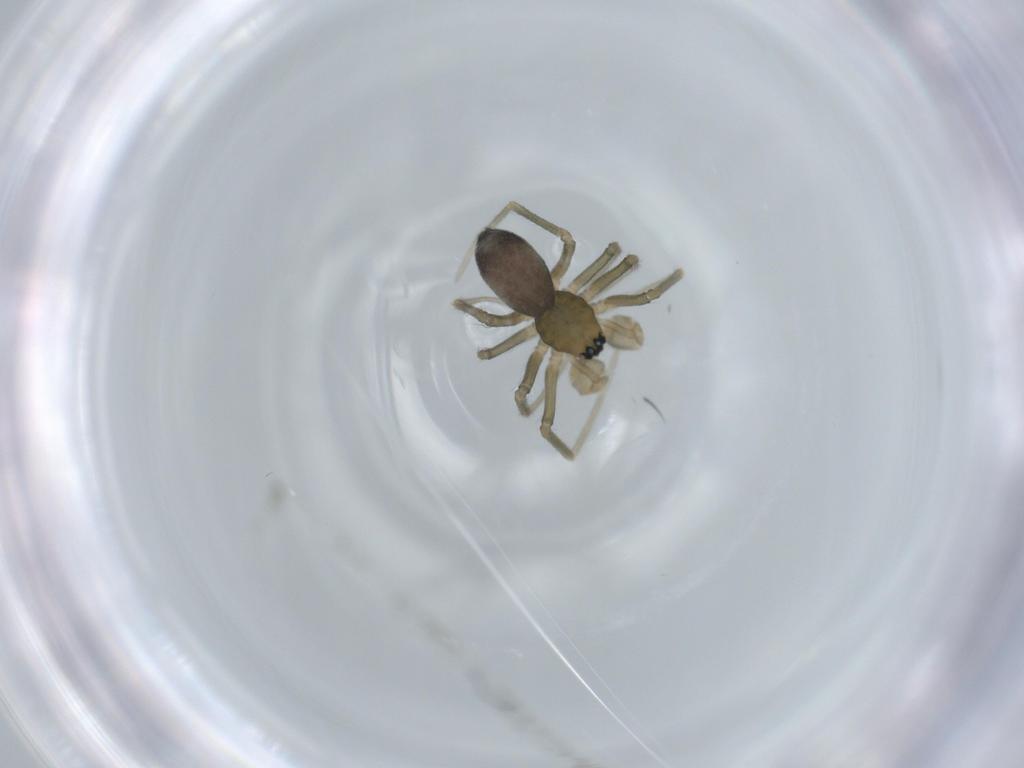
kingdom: Animalia
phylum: Arthropoda
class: Arachnida
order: Araneae
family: Linyphiidae
